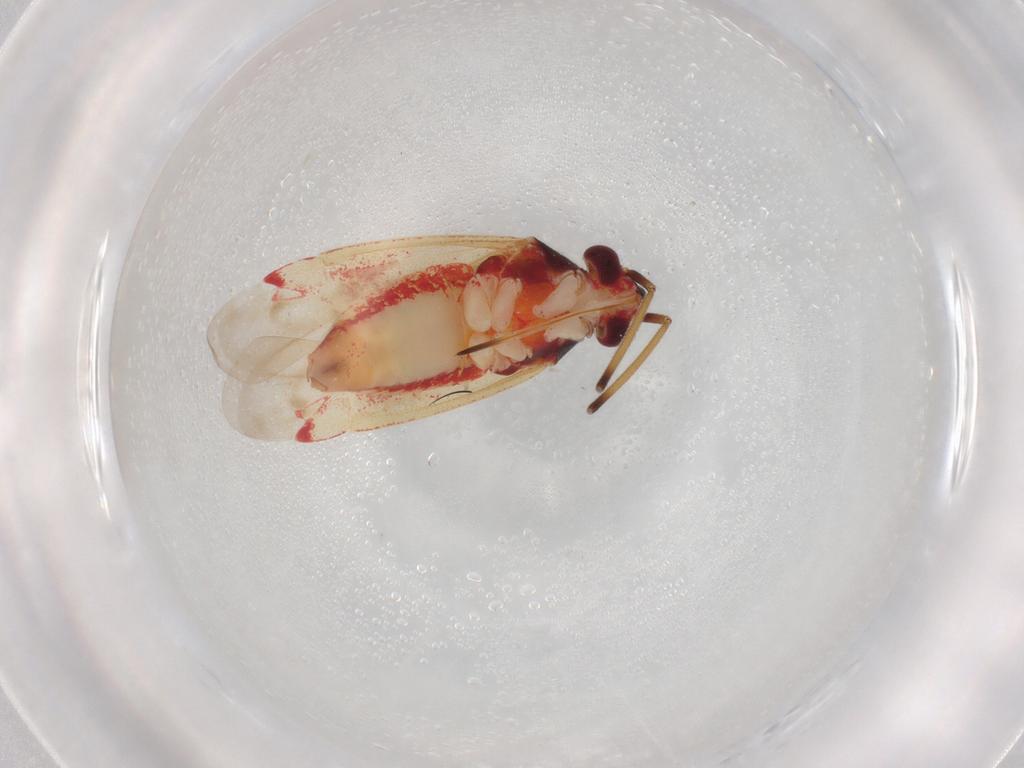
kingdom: Animalia
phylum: Arthropoda
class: Insecta
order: Hemiptera
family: Miridae
